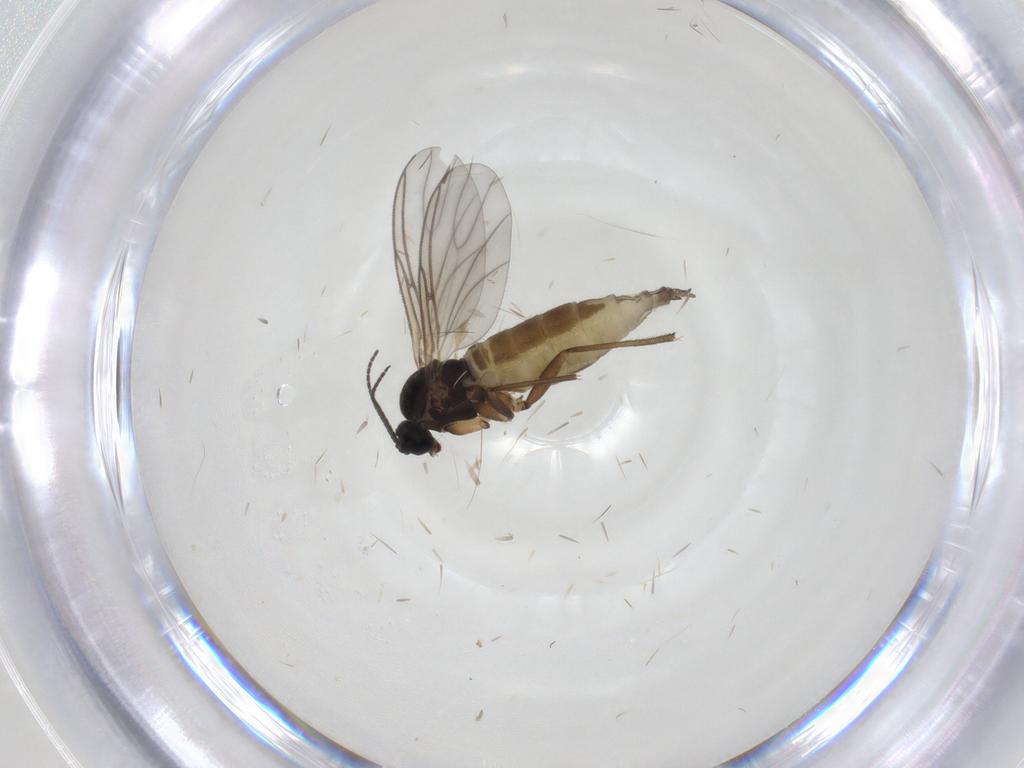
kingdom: Animalia
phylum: Arthropoda
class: Insecta
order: Diptera
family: Sciaridae
